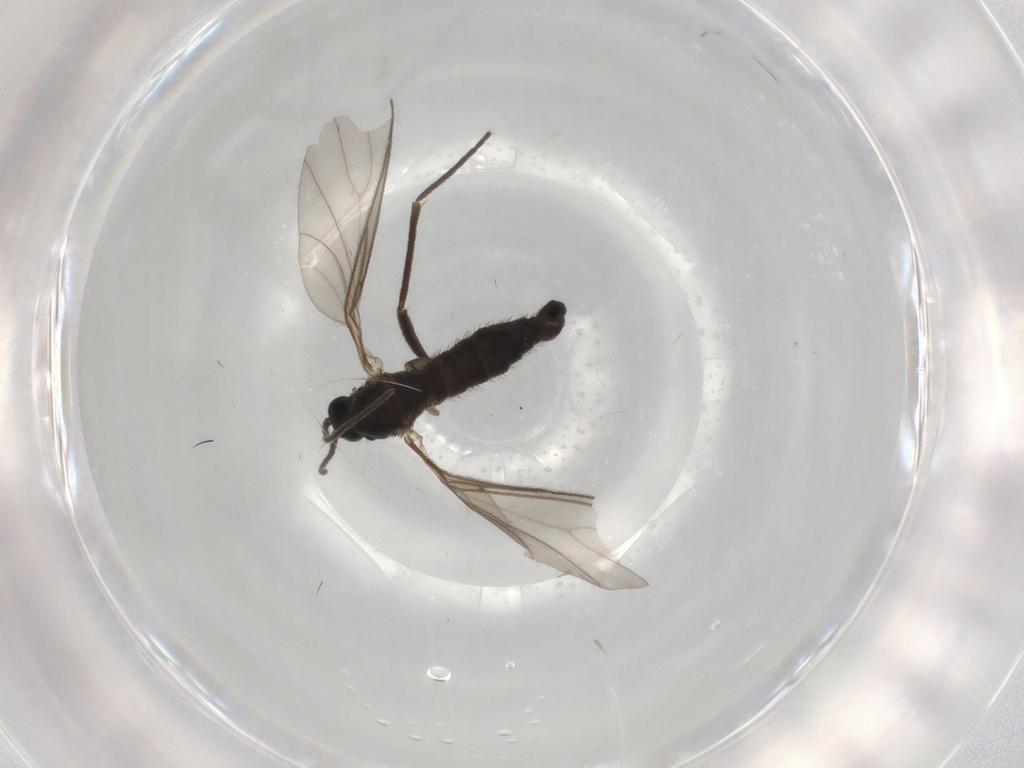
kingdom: Animalia
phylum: Arthropoda
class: Insecta
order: Diptera
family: Sciaridae
